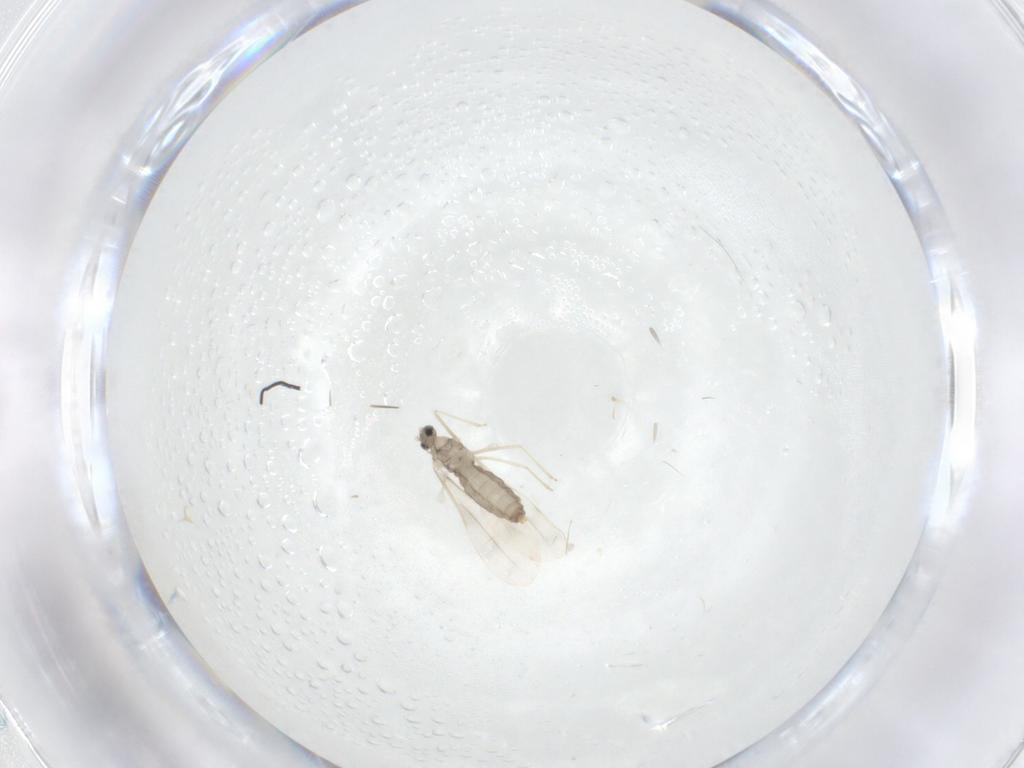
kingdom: Animalia
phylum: Arthropoda
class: Insecta
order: Diptera
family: Cecidomyiidae
